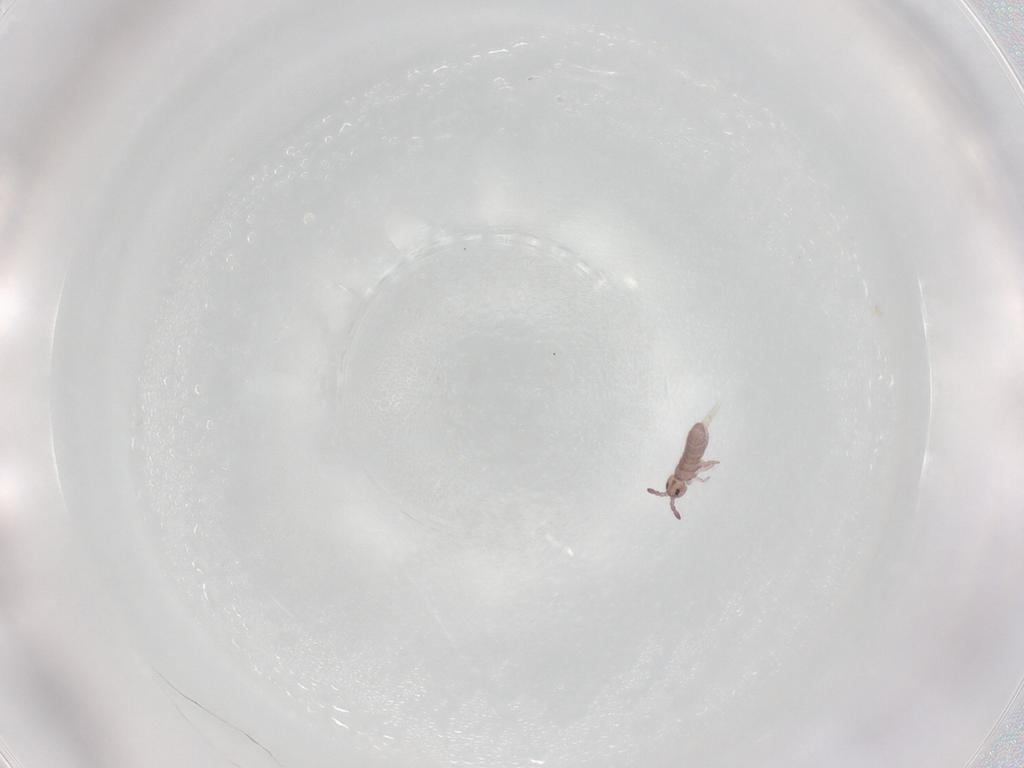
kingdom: Animalia
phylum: Arthropoda
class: Collembola
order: Entomobryomorpha
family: Isotomidae
